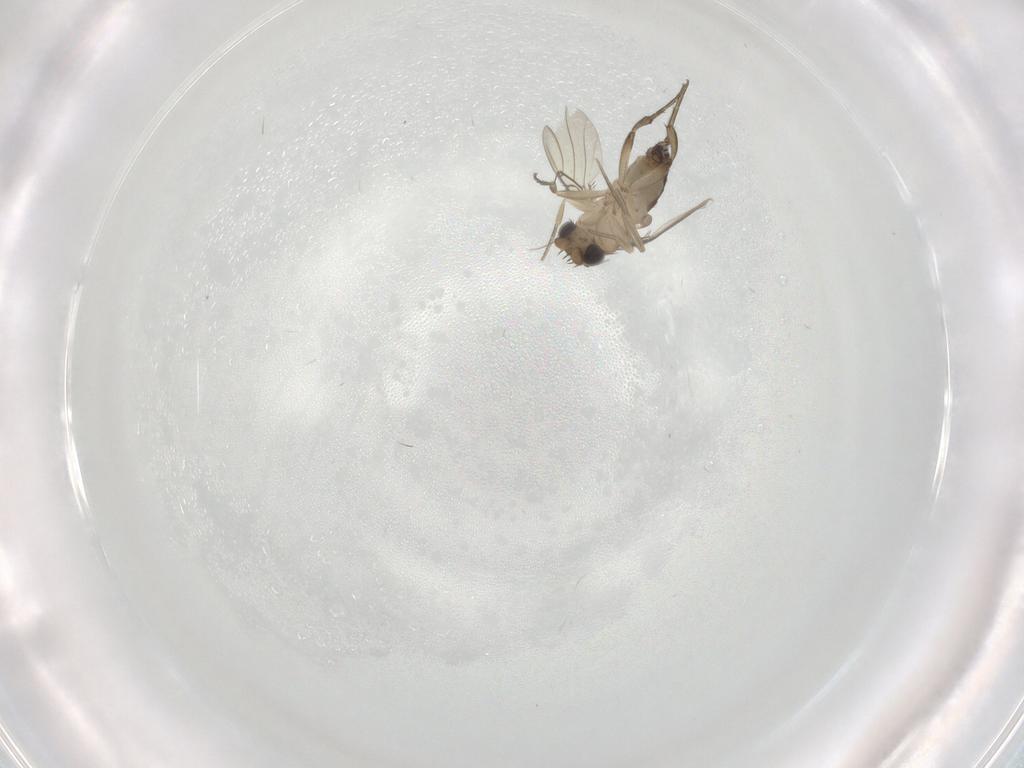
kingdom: Animalia
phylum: Arthropoda
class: Insecta
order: Diptera
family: Phoridae
